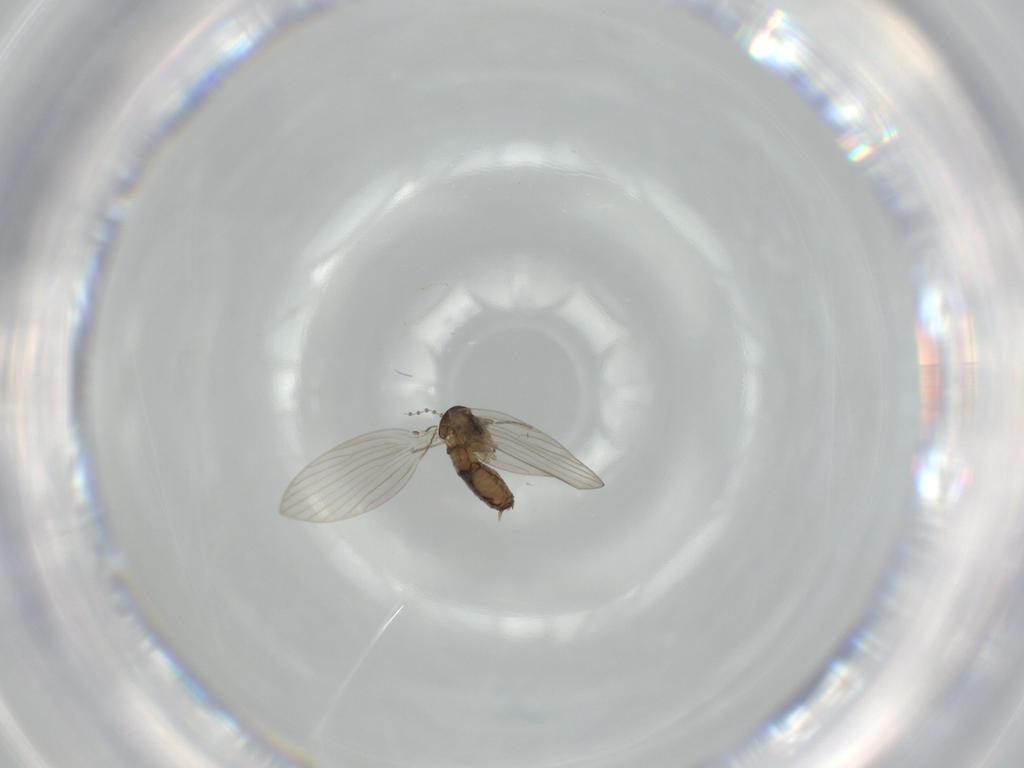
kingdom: Animalia
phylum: Arthropoda
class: Insecta
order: Diptera
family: Psychodidae
